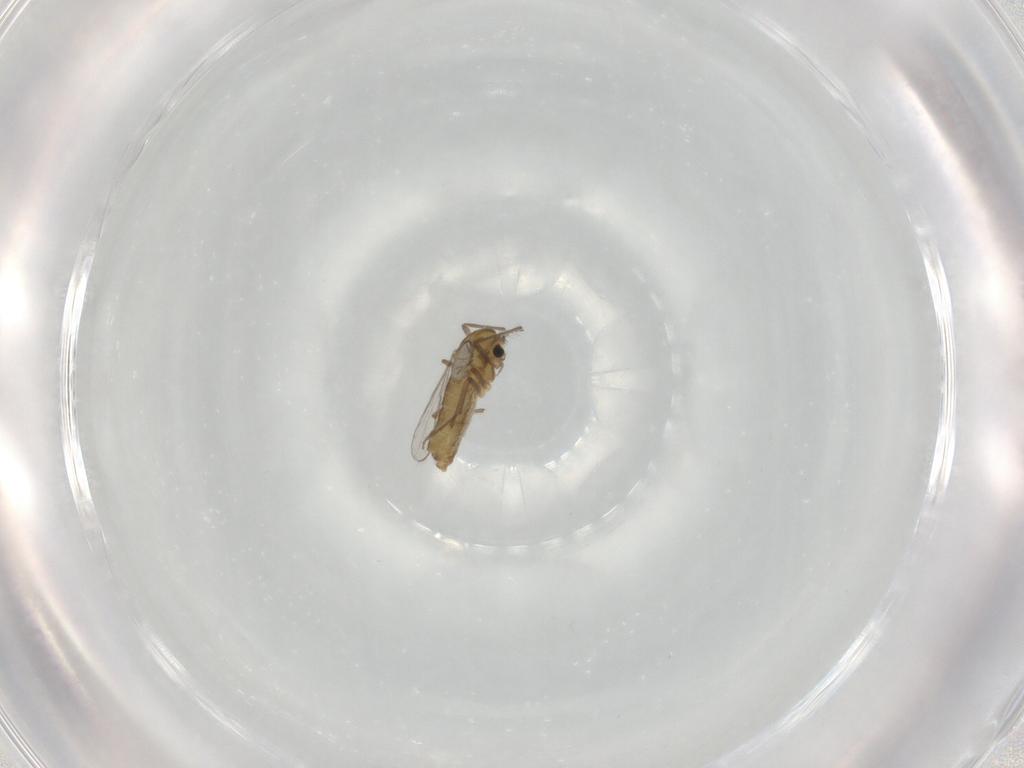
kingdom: Animalia
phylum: Arthropoda
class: Insecta
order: Diptera
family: Chironomidae
